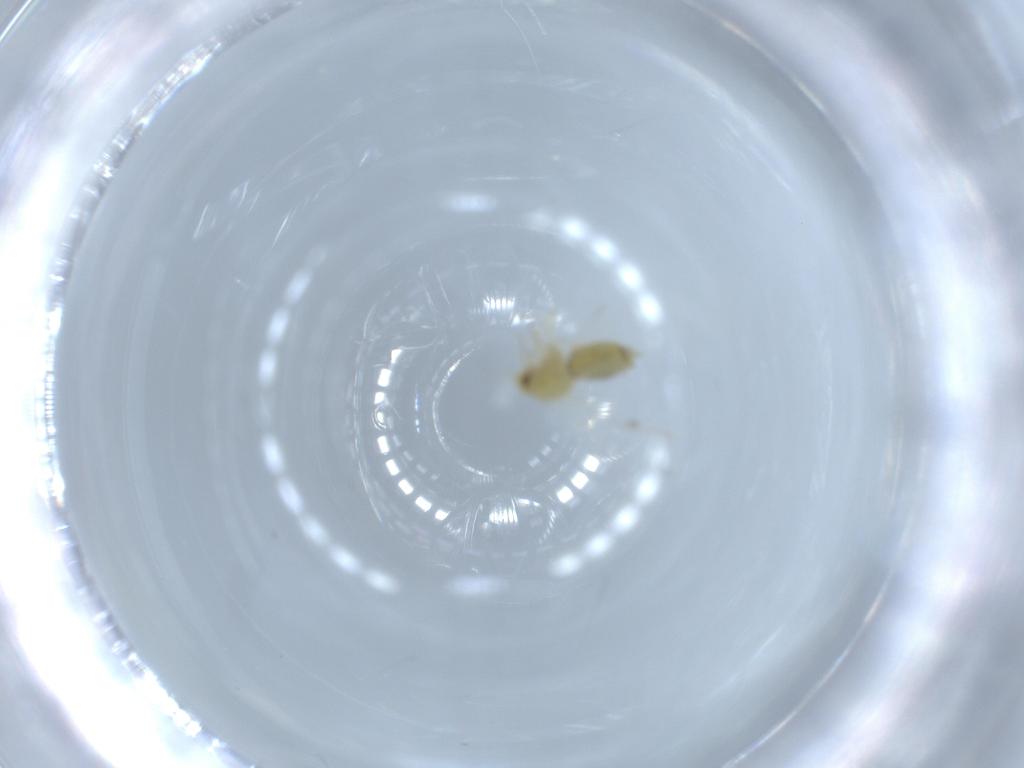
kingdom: Animalia
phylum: Arthropoda
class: Insecta
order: Hemiptera
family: Aleyrodidae
